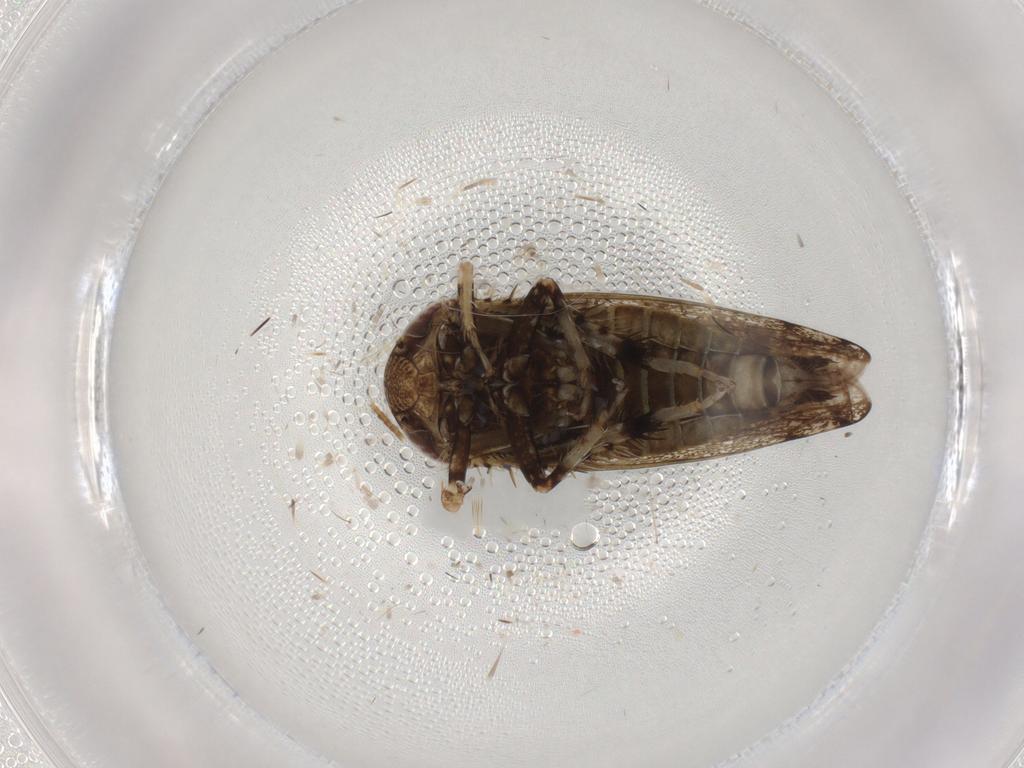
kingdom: Animalia
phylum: Arthropoda
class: Insecta
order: Hemiptera
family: Cicadellidae
